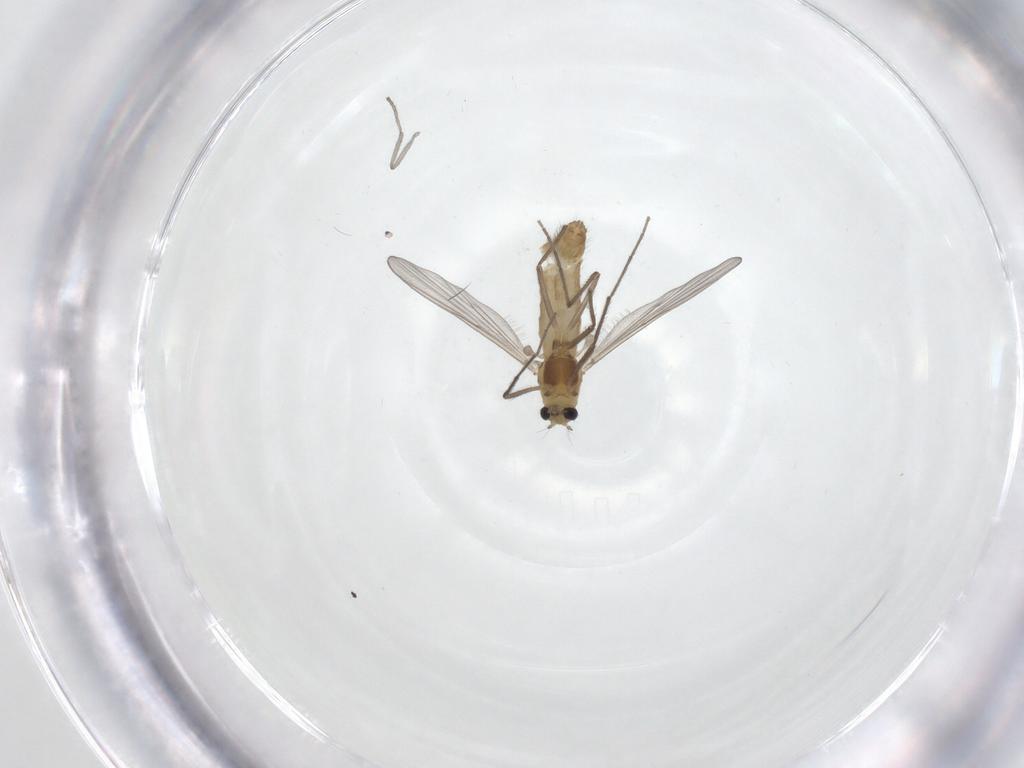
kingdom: Animalia
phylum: Arthropoda
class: Insecta
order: Diptera
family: Chironomidae
